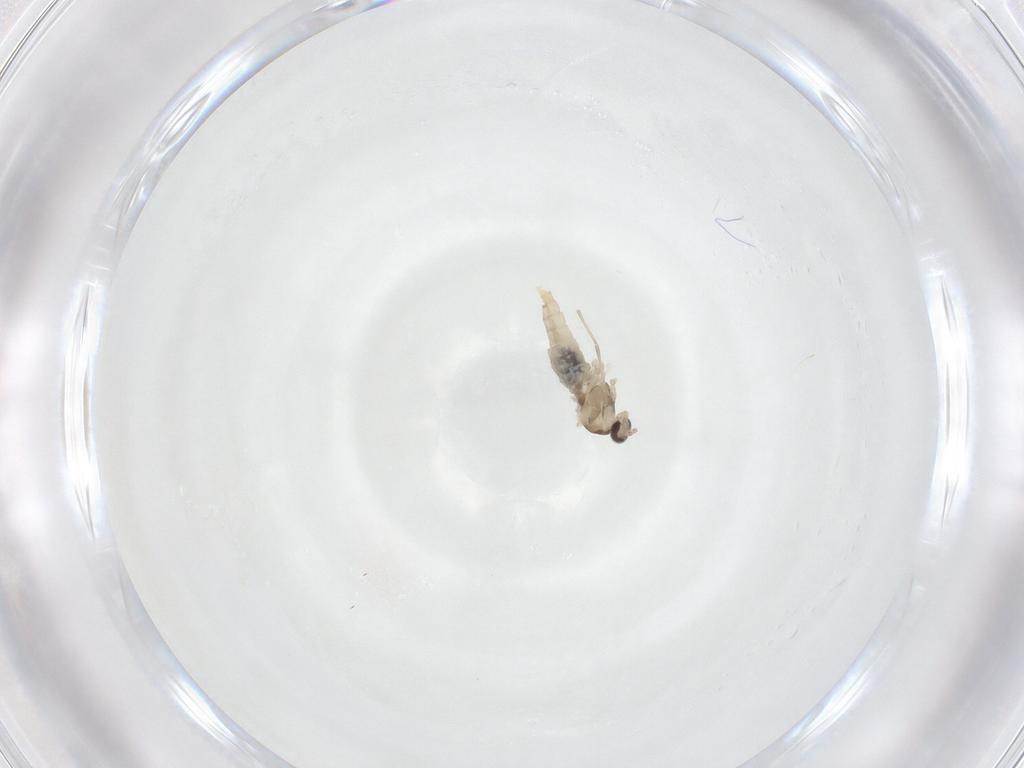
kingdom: Animalia
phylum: Arthropoda
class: Insecta
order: Diptera
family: Cecidomyiidae
